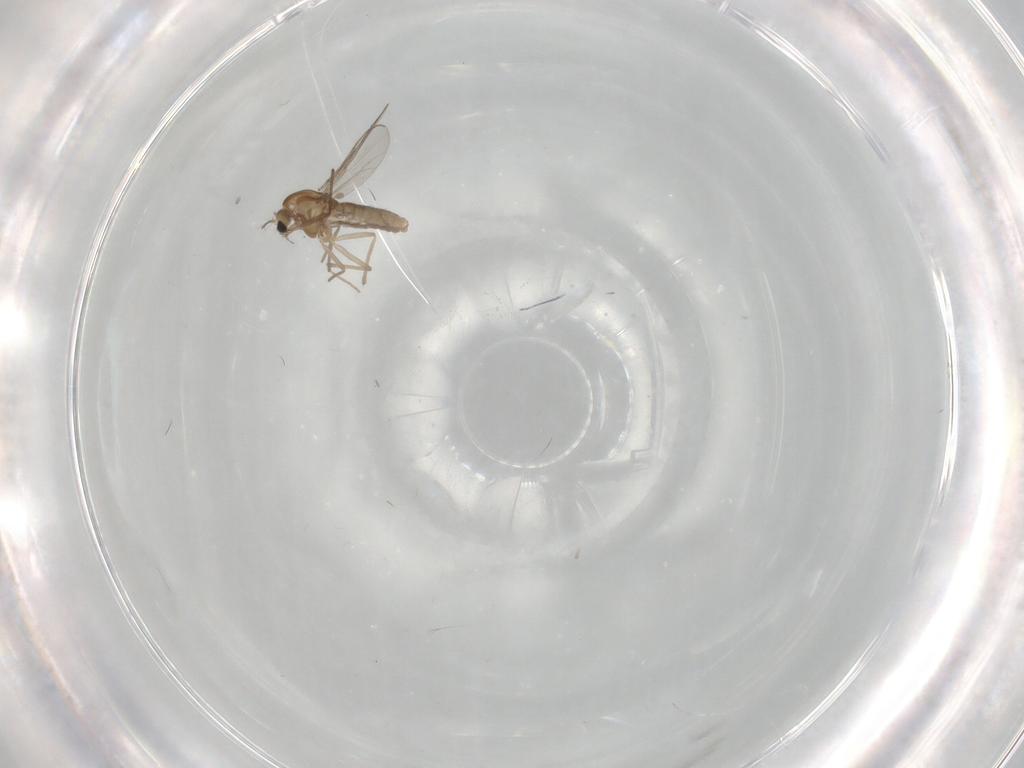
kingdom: Animalia
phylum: Arthropoda
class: Insecta
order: Diptera
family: Chironomidae
